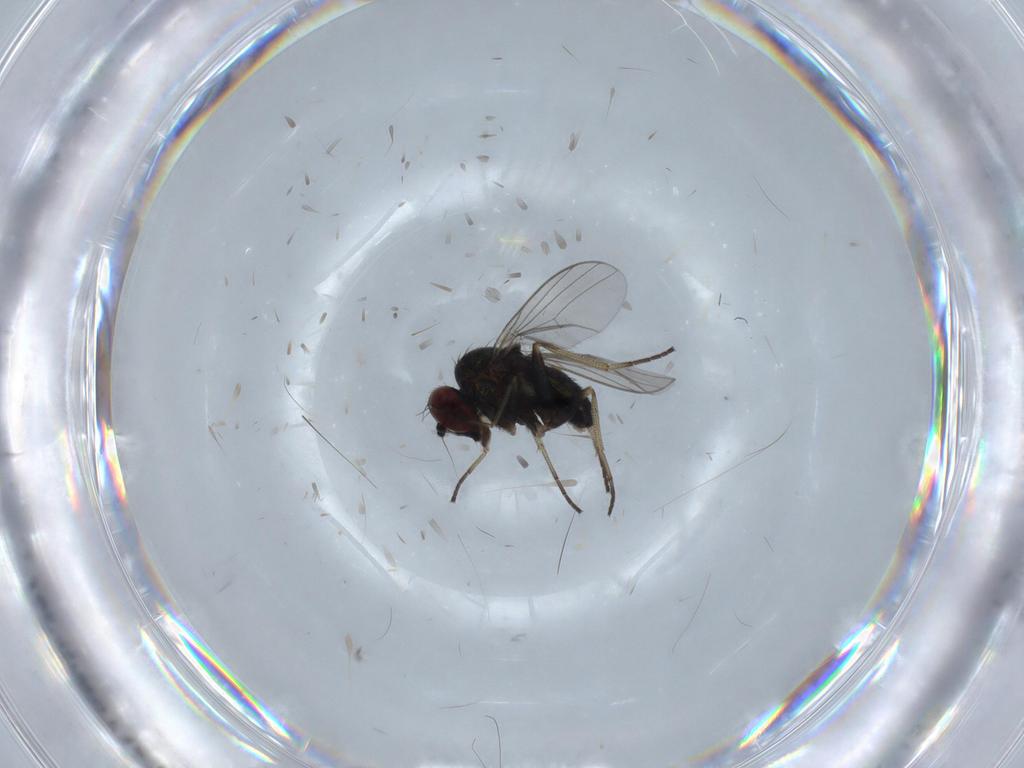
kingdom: Animalia
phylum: Arthropoda
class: Insecta
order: Diptera
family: Dolichopodidae
